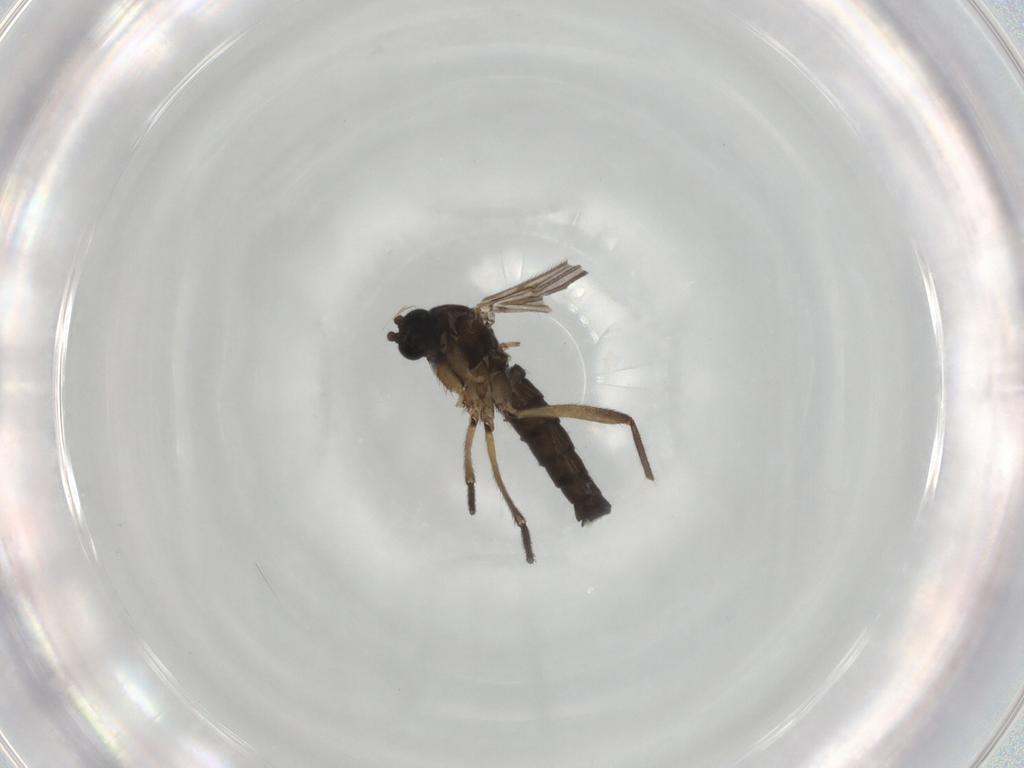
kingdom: Animalia
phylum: Arthropoda
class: Insecta
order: Diptera
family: Sciaridae
